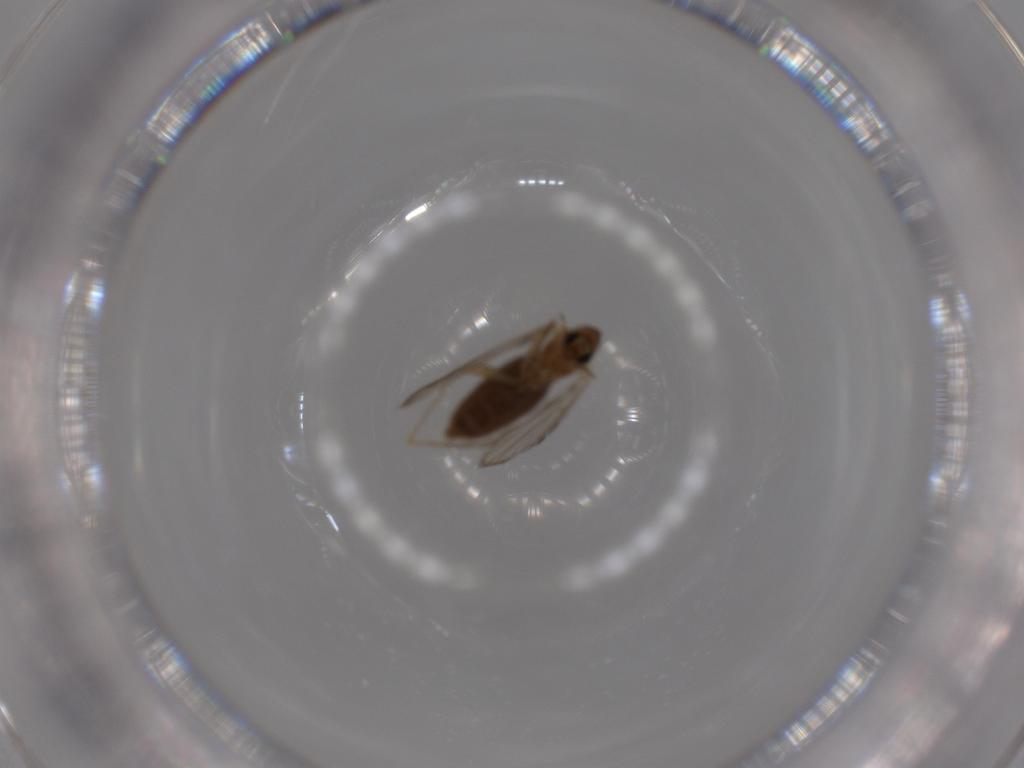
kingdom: Animalia
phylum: Arthropoda
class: Insecta
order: Diptera
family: Psychodidae
